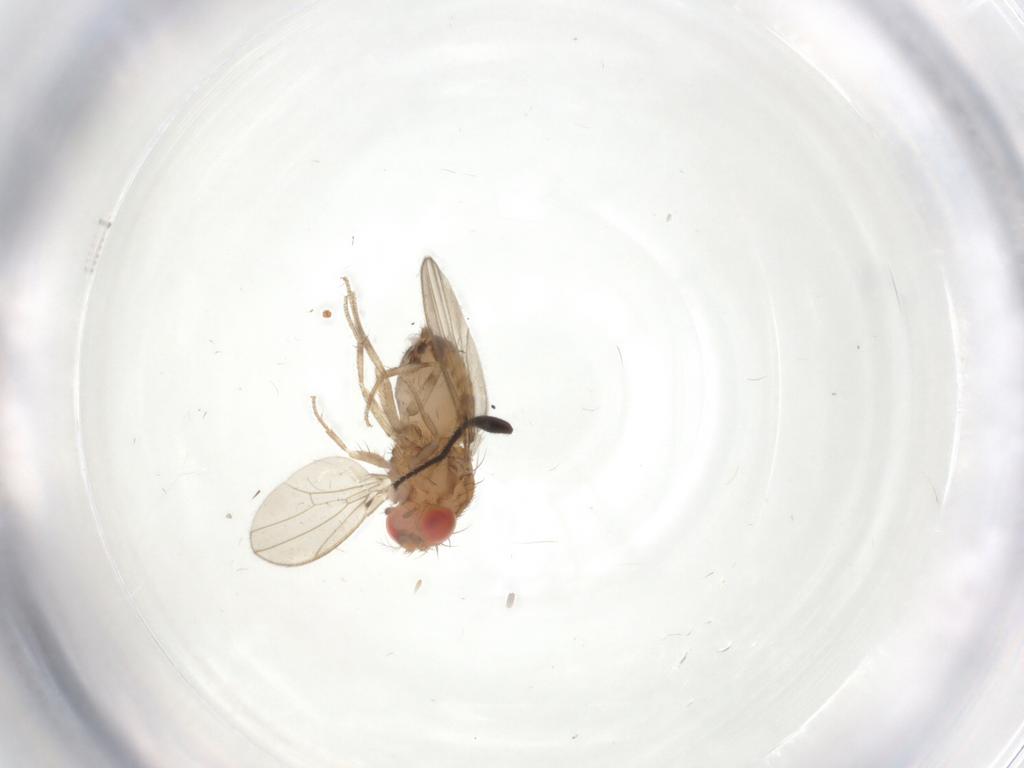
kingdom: Animalia
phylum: Arthropoda
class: Insecta
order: Diptera
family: Drosophilidae
